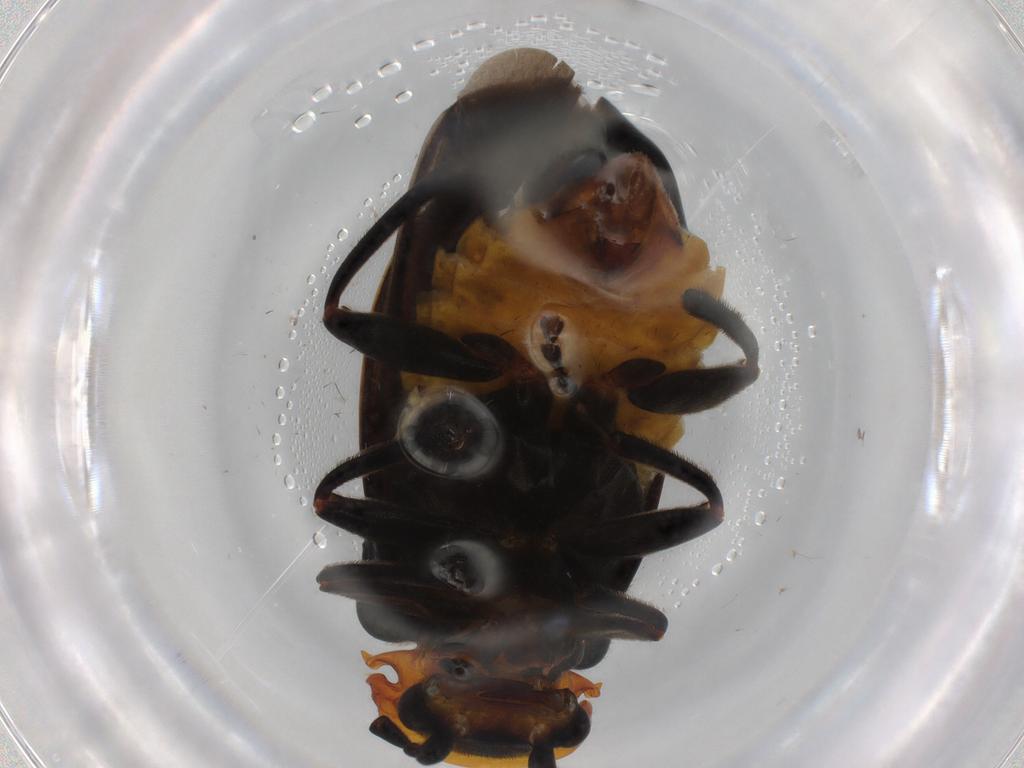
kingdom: Animalia
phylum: Arthropoda
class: Insecta
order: Coleoptera
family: Cantharidae
